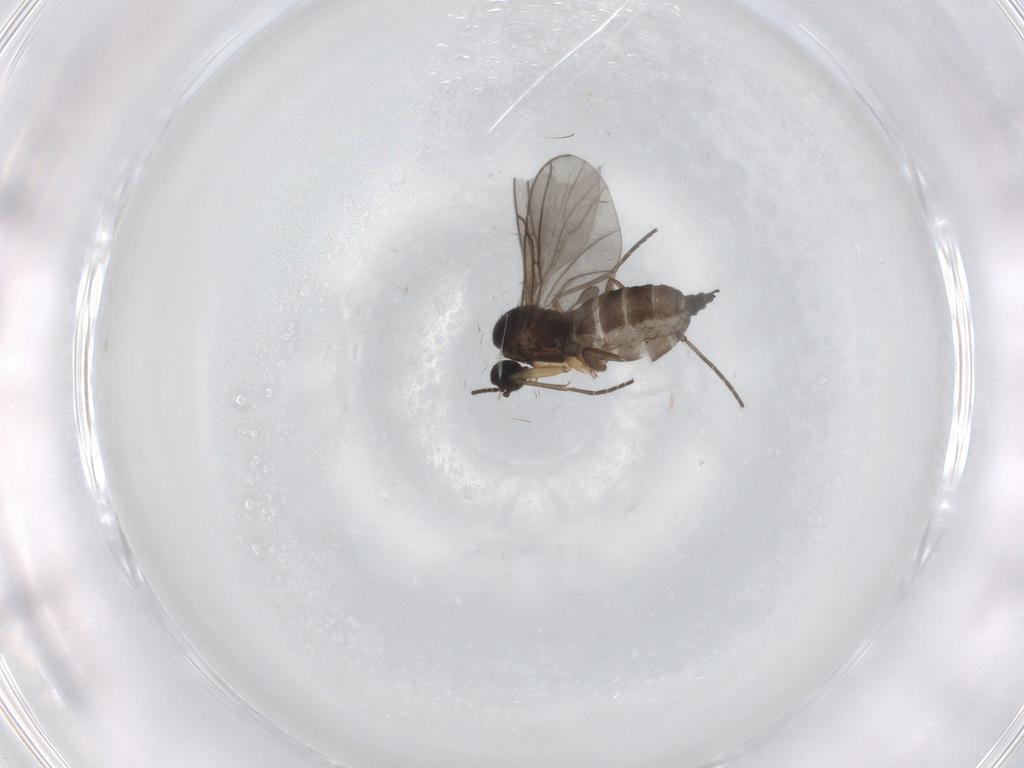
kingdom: Animalia
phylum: Arthropoda
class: Insecta
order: Diptera
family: Sciaridae
